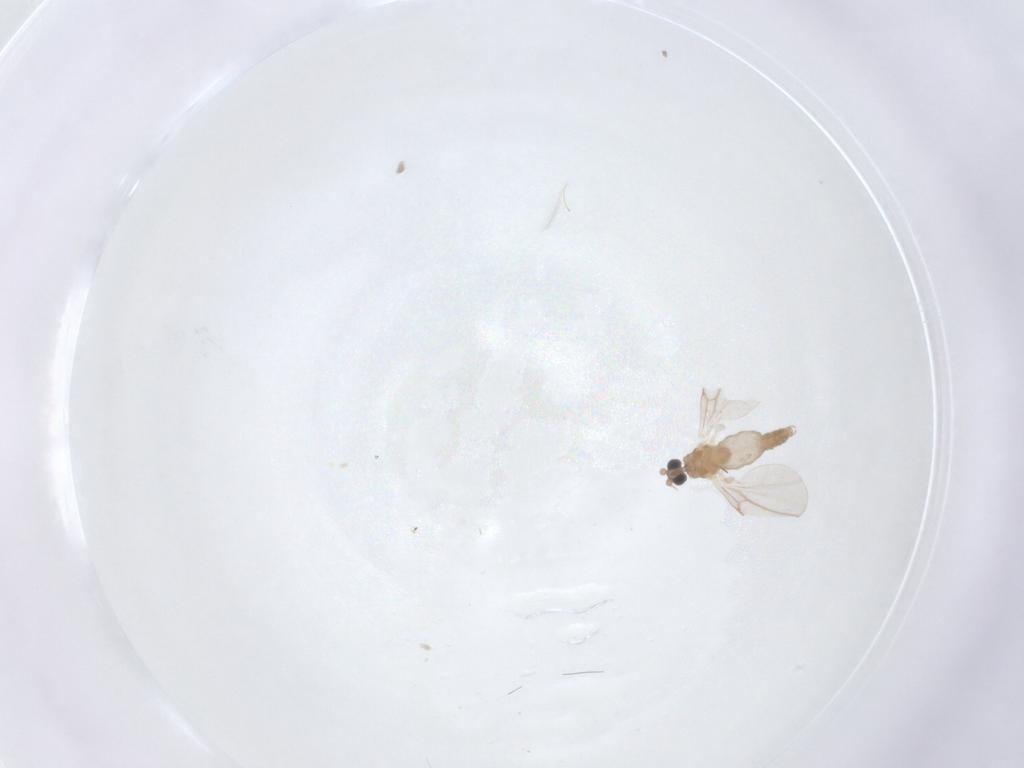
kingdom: Animalia
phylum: Arthropoda
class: Insecta
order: Diptera
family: Cecidomyiidae
